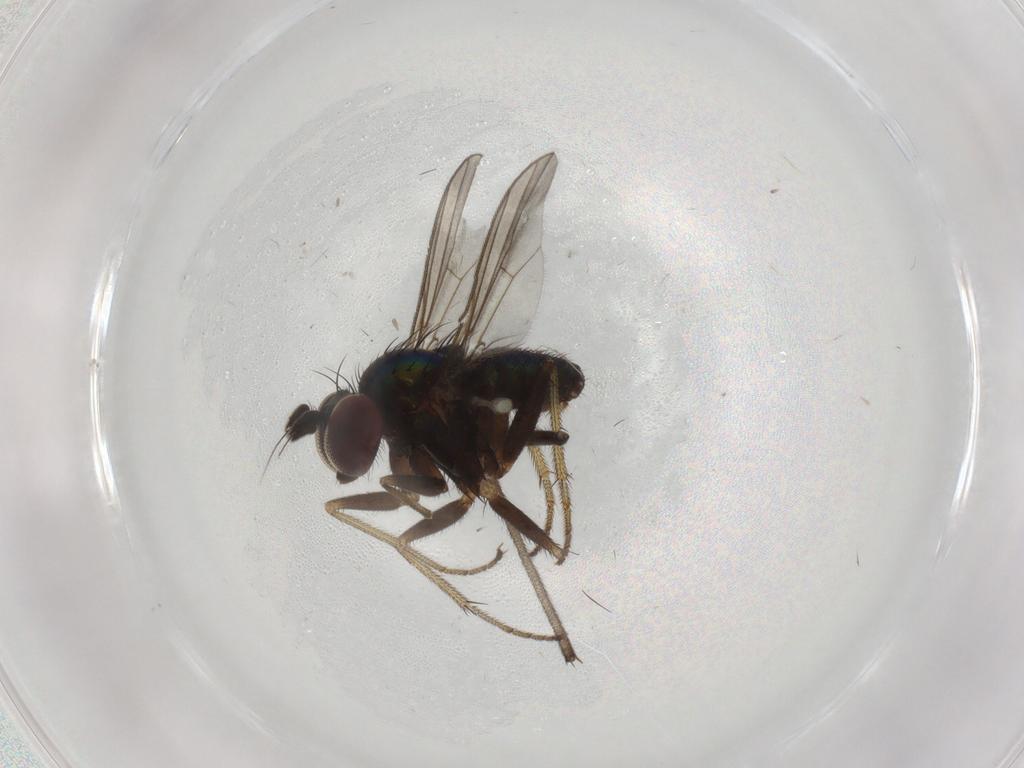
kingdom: Animalia
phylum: Arthropoda
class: Insecta
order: Diptera
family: Dolichopodidae
